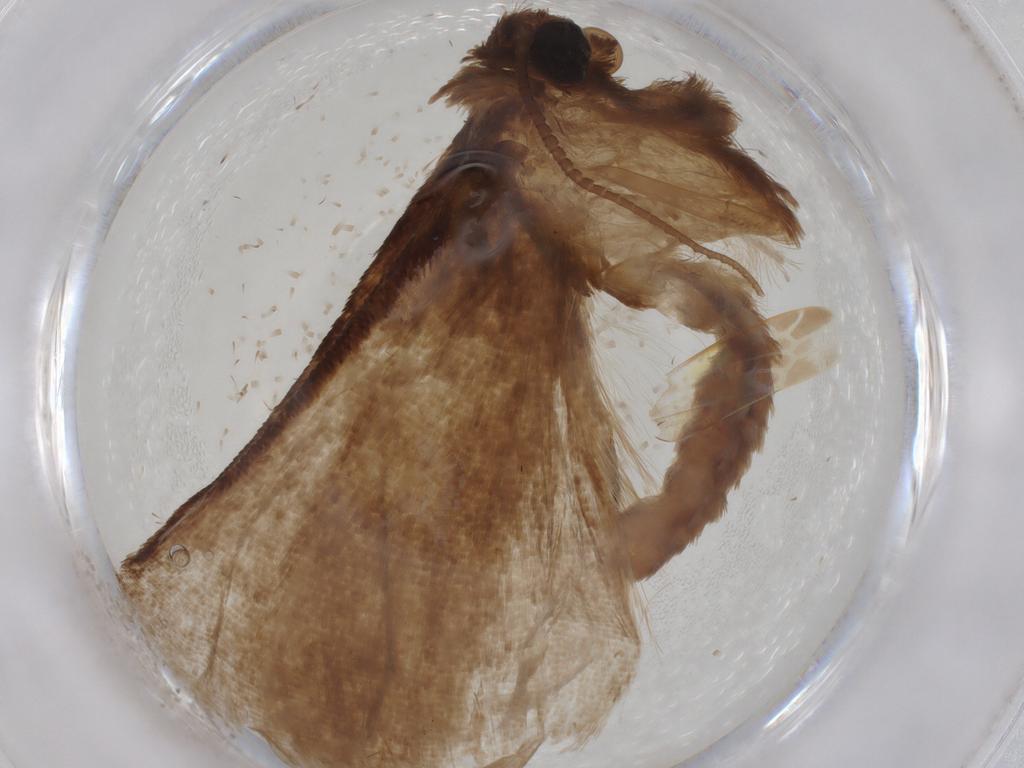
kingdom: Animalia
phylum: Arthropoda
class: Insecta
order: Lepidoptera
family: Erebidae
